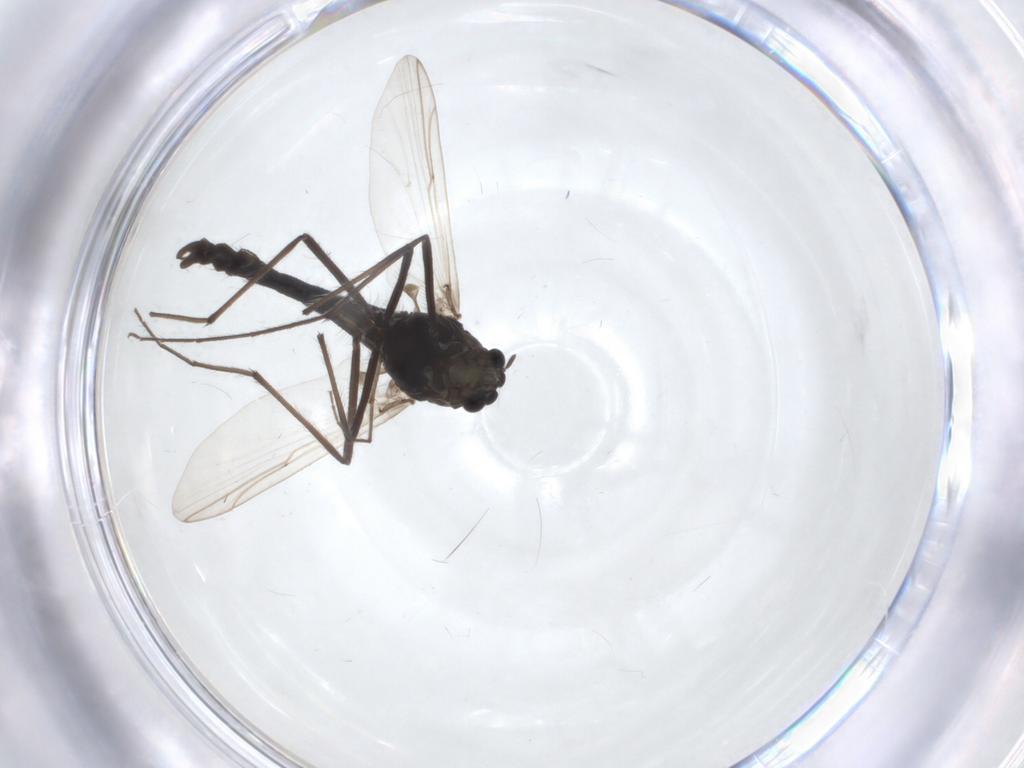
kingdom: Animalia
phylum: Arthropoda
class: Insecta
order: Diptera
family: Chironomidae
